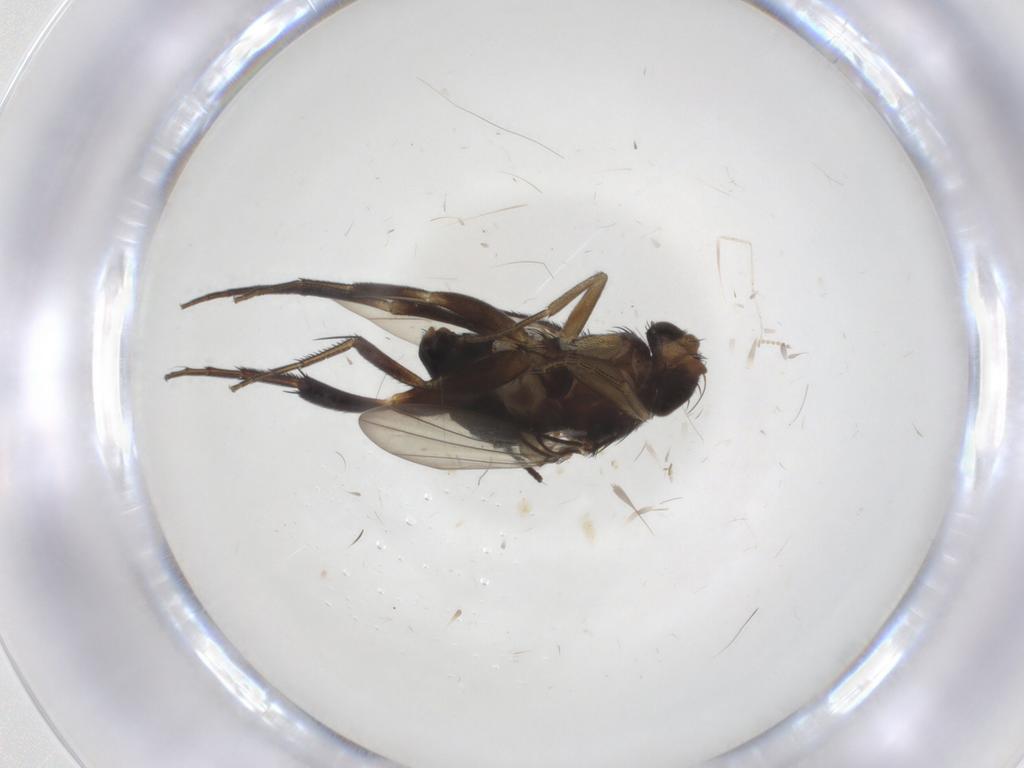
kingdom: Animalia
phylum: Arthropoda
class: Insecta
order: Diptera
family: Phoridae
